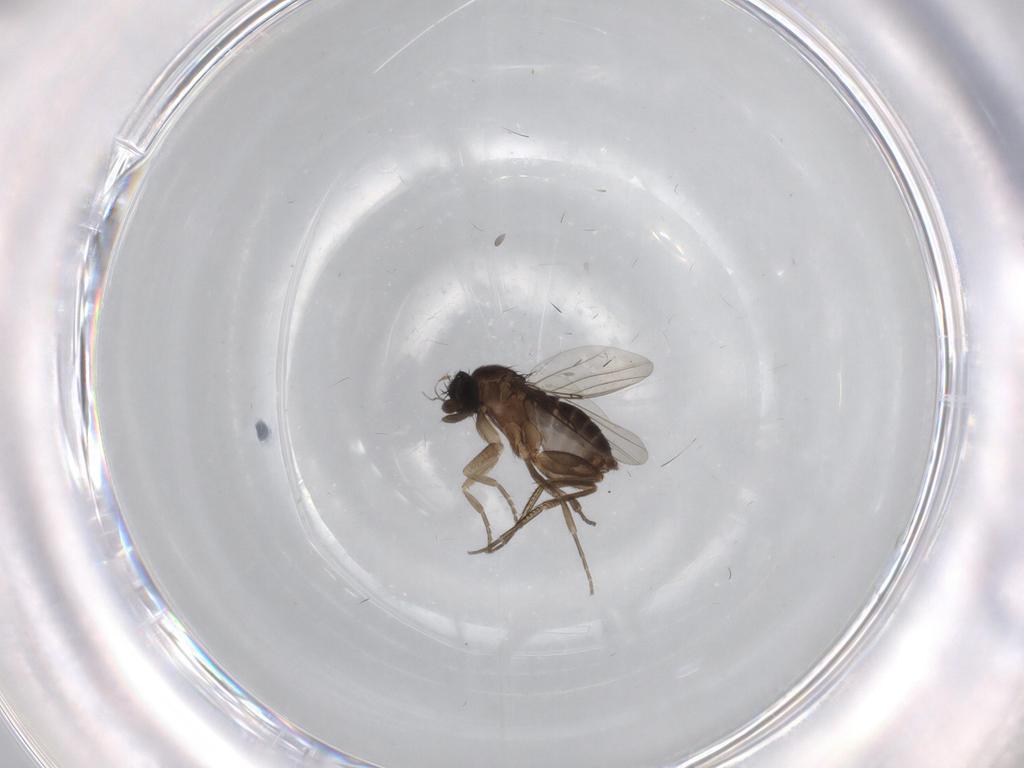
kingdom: Animalia
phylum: Arthropoda
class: Insecta
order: Diptera
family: Phoridae
